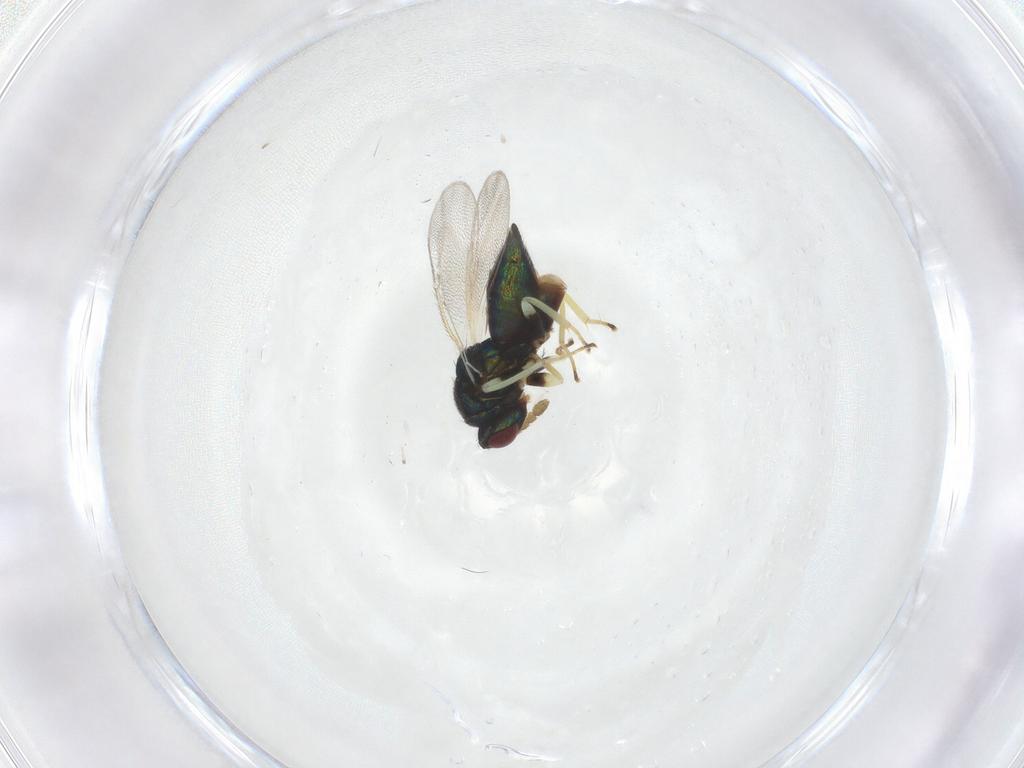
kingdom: Animalia
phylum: Arthropoda
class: Insecta
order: Hymenoptera
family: Eulophidae
